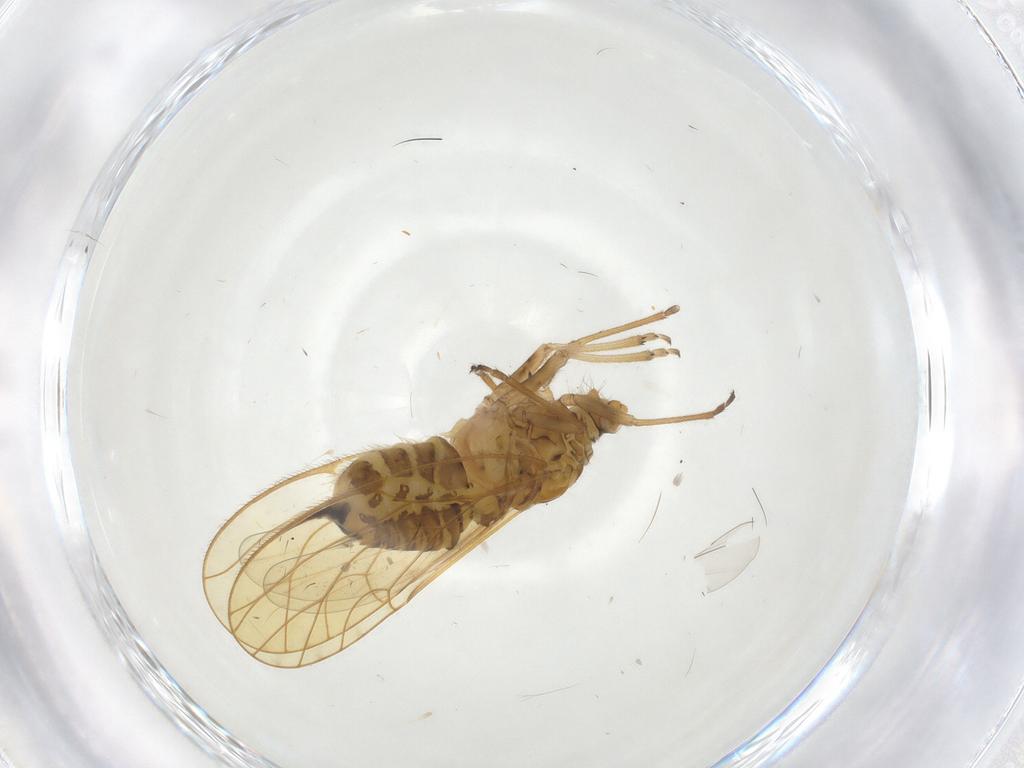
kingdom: Animalia
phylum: Arthropoda
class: Insecta
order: Hemiptera
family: Psyllidae
